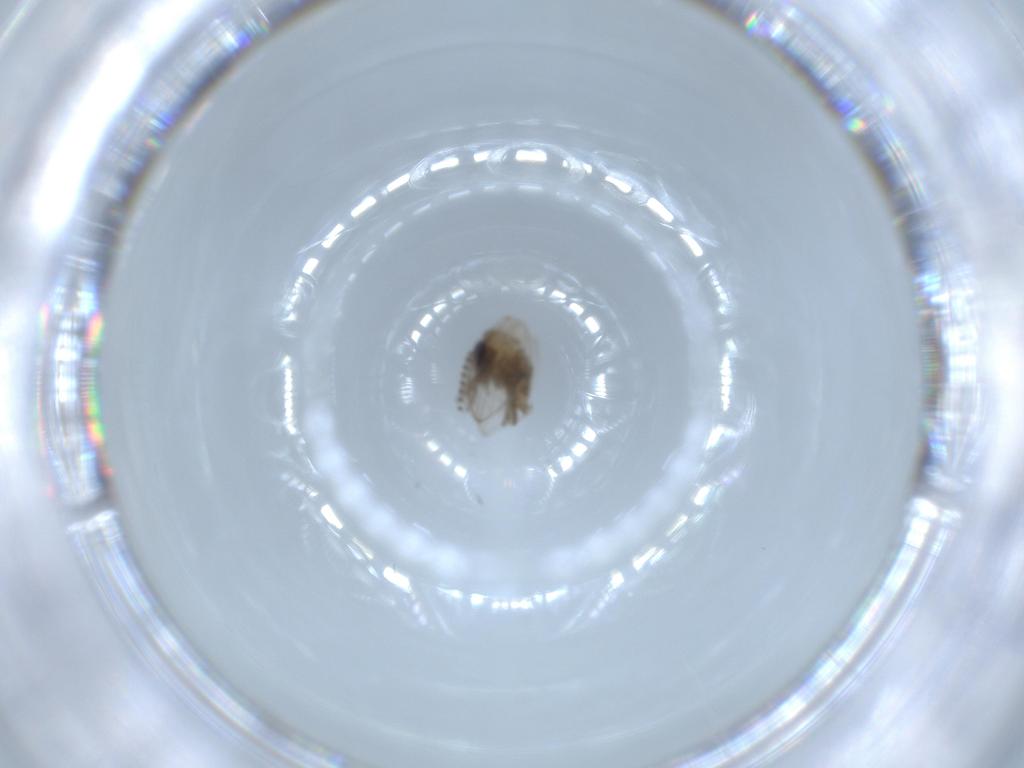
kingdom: Animalia
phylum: Arthropoda
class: Insecta
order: Diptera
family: Psychodidae
